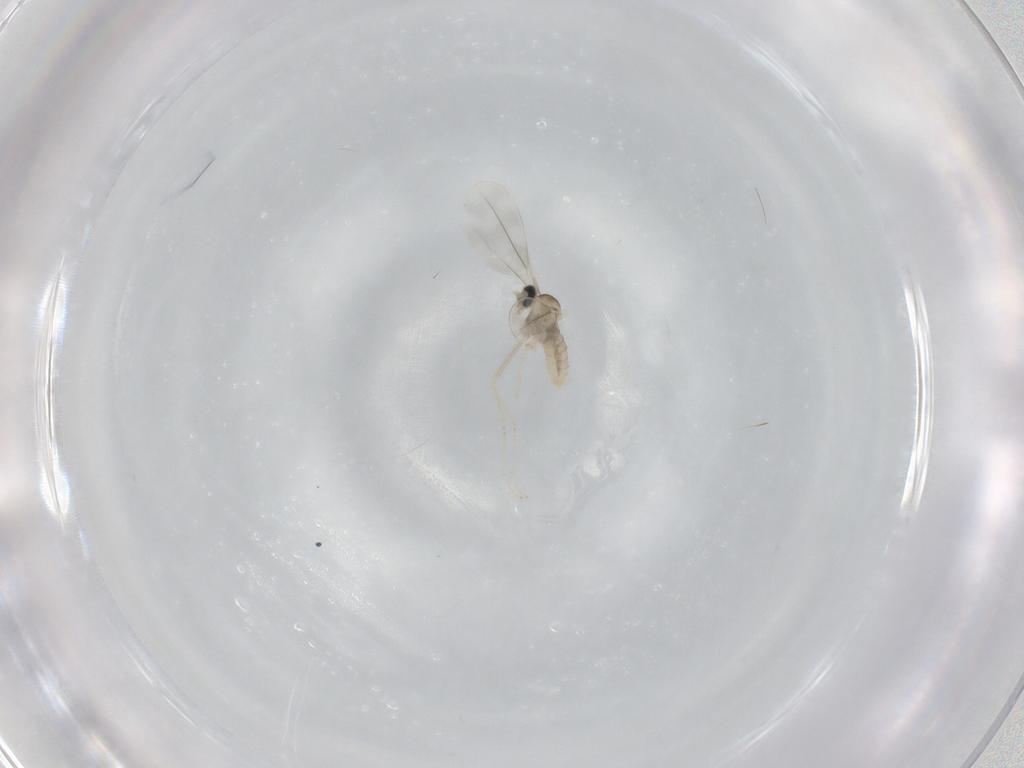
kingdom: Animalia
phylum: Arthropoda
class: Insecta
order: Diptera
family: Cecidomyiidae
